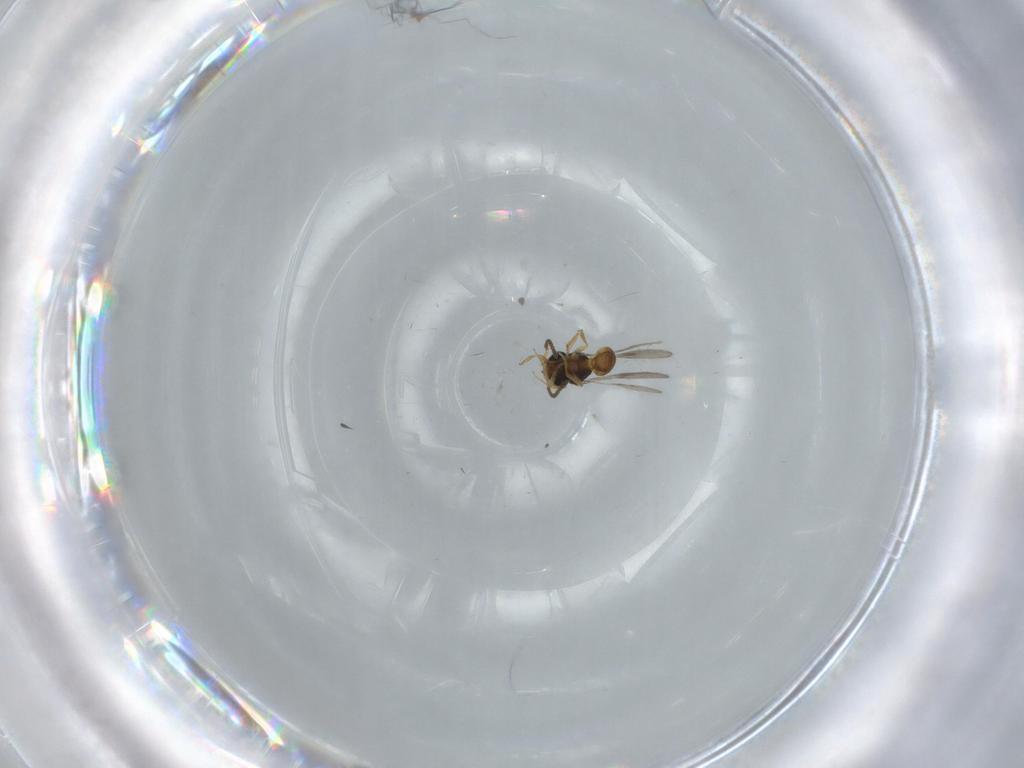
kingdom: Animalia
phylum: Arthropoda
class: Insecta
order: Hymenoptera
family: Scelionidae
